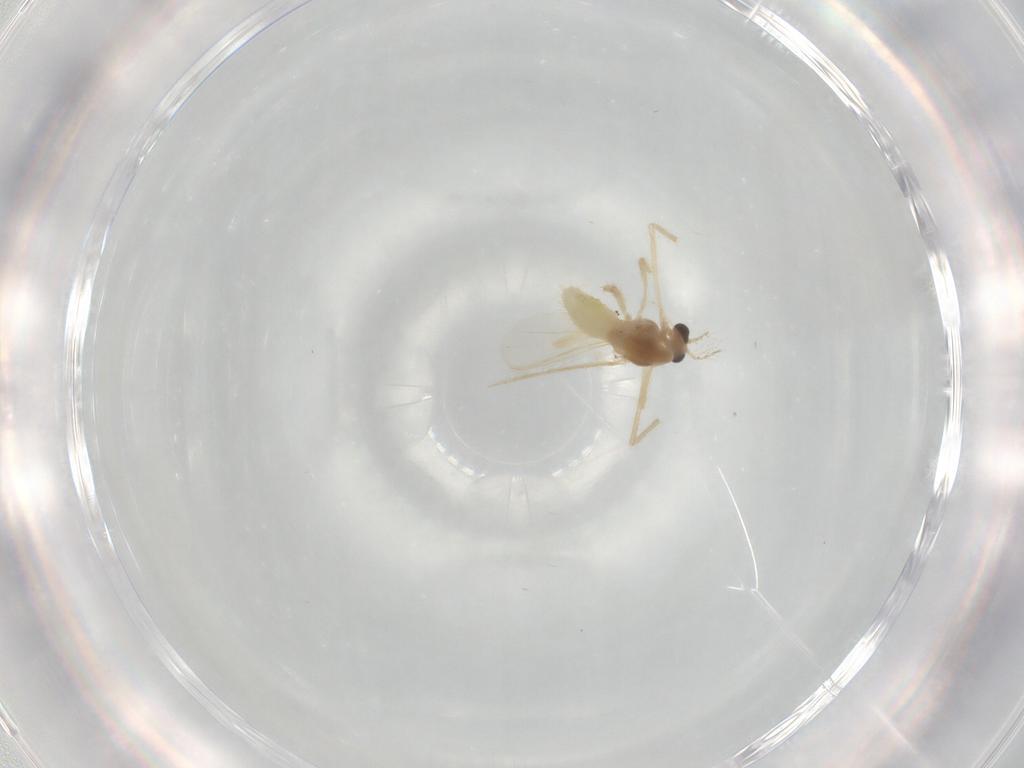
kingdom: Animalia
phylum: Arthropoda
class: Insecta
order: Diptera
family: Chironomidae
